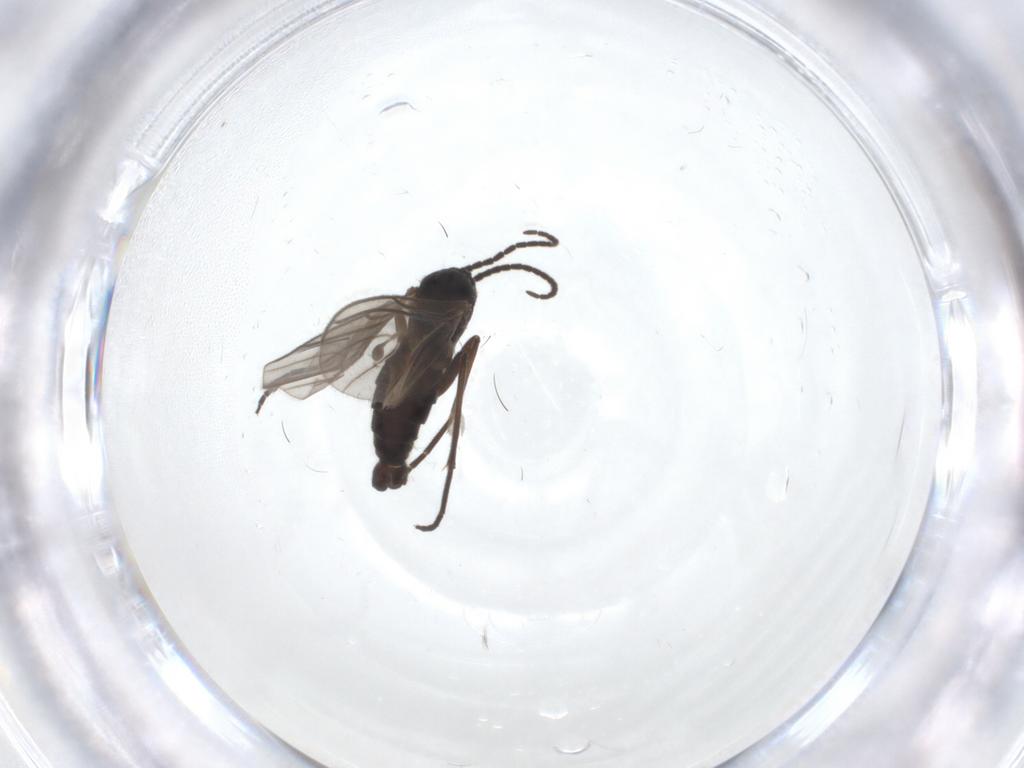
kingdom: Animalia
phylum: Arthropoda
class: Insecta
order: Diptera
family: Sciaridae
